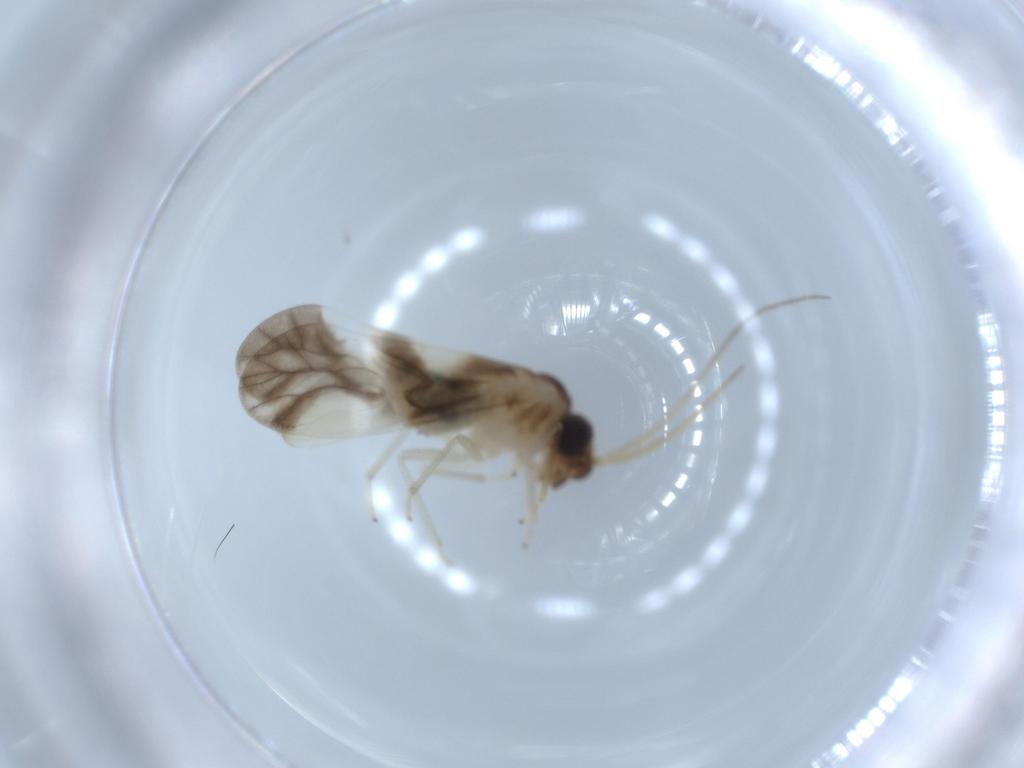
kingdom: Animalia
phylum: Arthropoda
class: Insecta
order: Psocodea
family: Caeciliusidae
